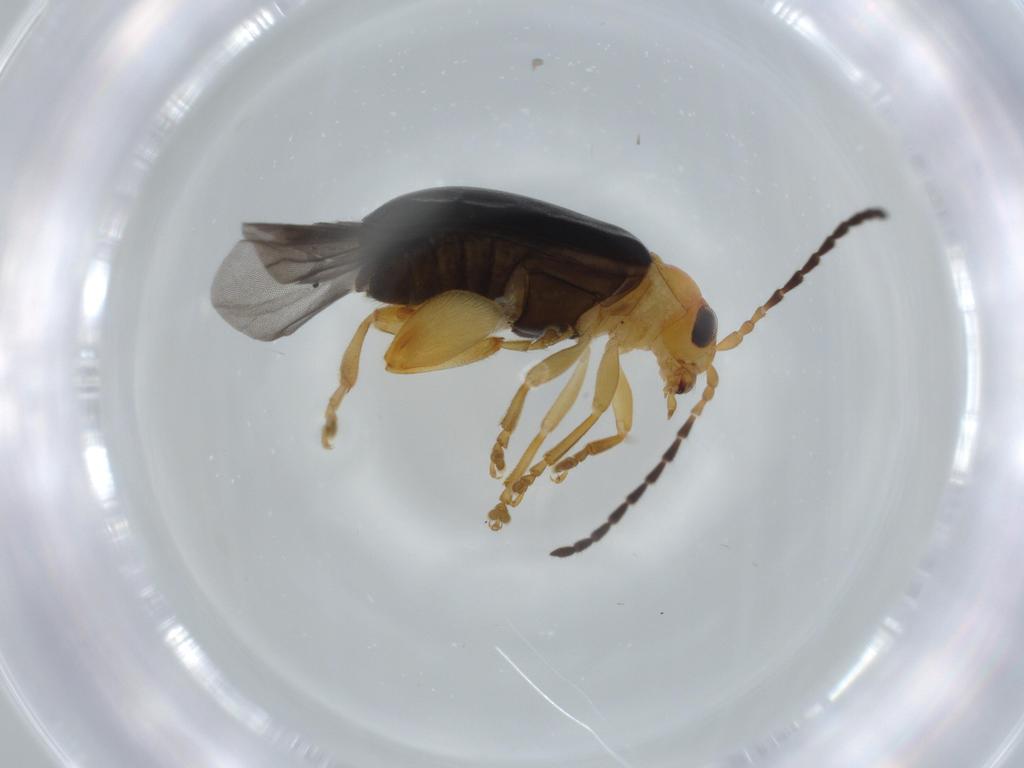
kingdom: Animalia
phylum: Arthropoda
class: Insecta
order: Coleoptera
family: Chrysomelidae
